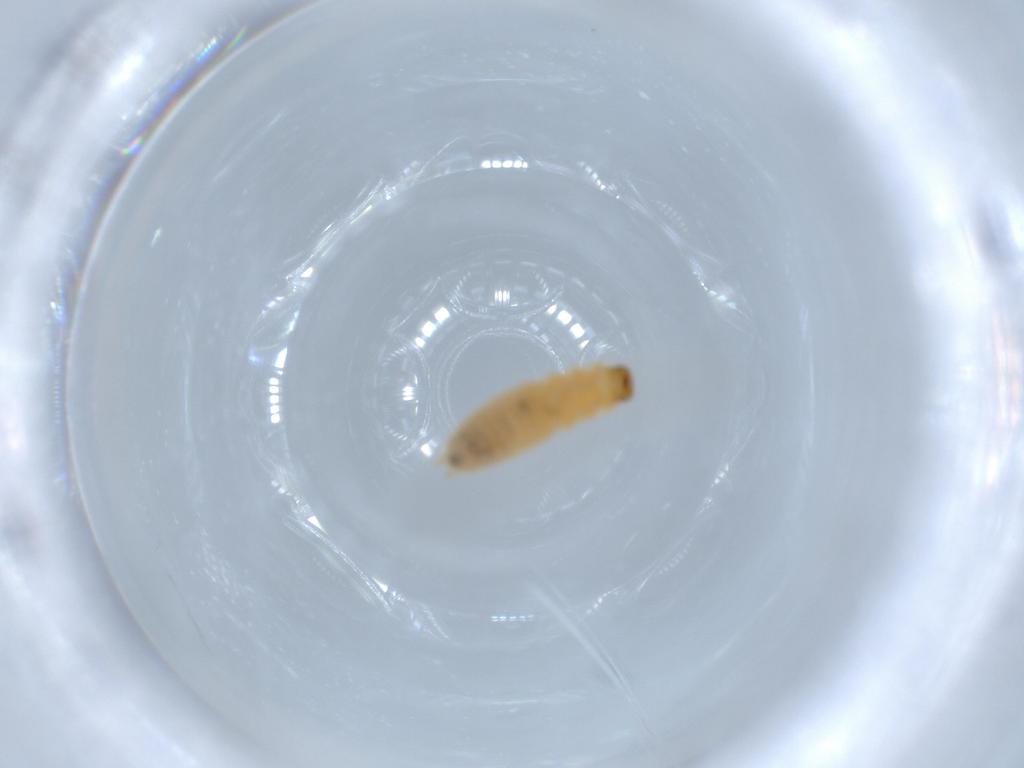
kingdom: Animalia
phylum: Arthropoda
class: Insecta
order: Coleoptera
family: Melyridae
